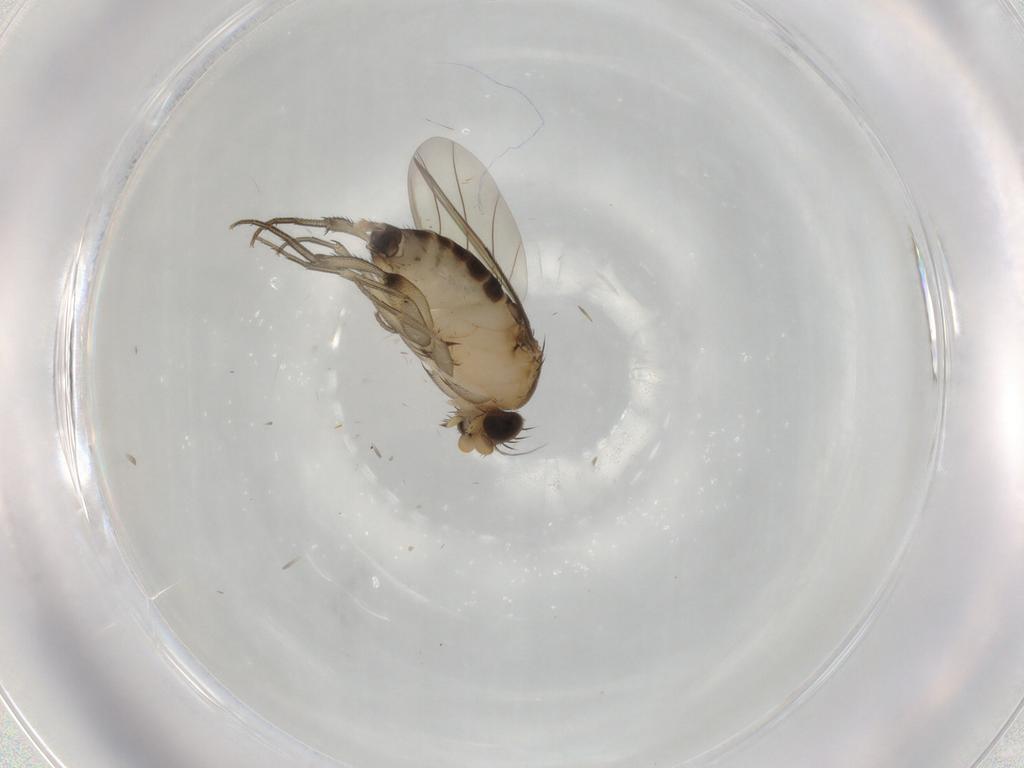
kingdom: Animalia
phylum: Arthropoda
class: Insecta
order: Diptera
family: Phoridae
